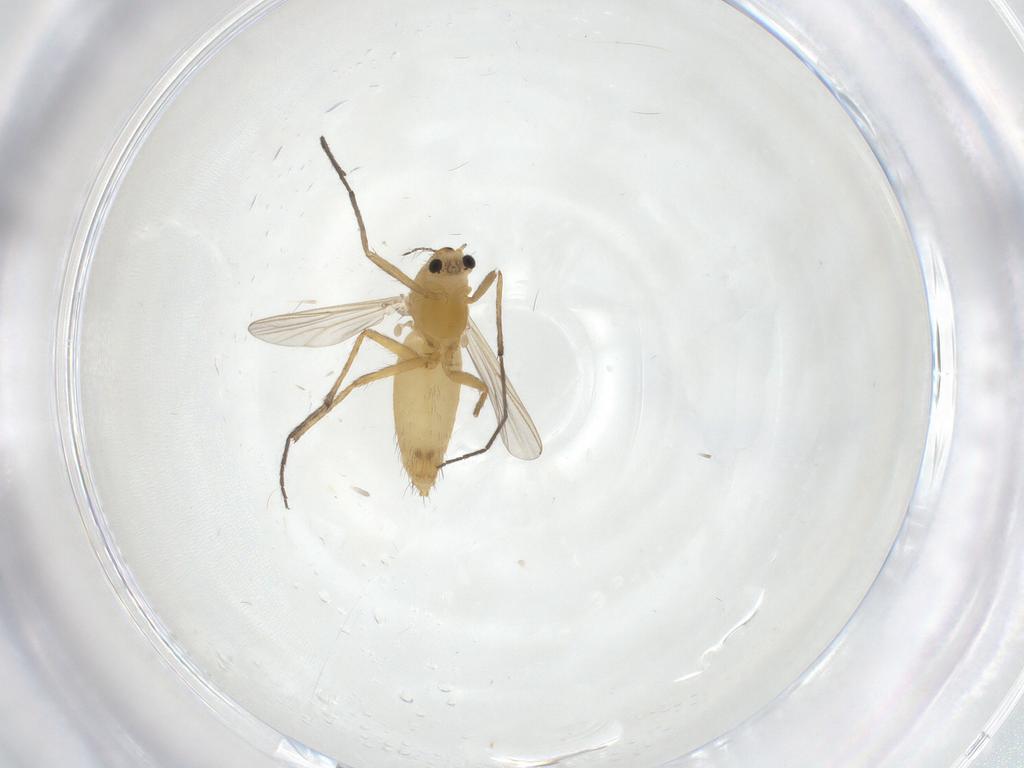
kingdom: Animalia
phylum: Arthropoda
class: Insecta
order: Diptera
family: Chironomidae
